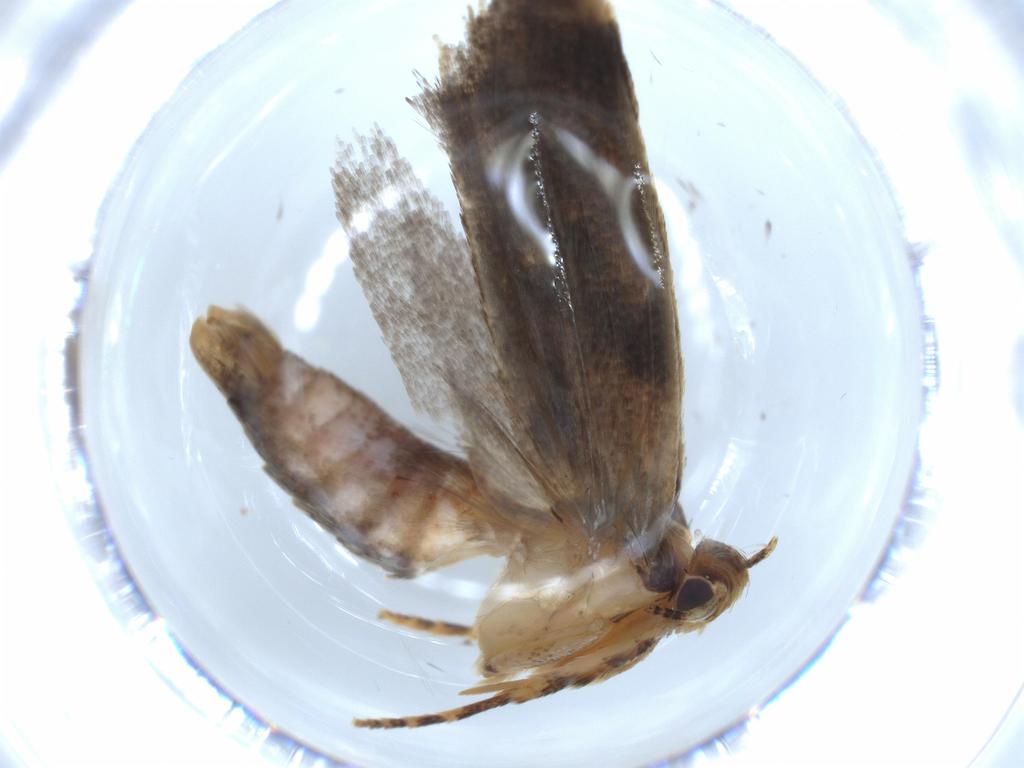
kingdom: Animalia
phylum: Arthropoda
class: Insecta
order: Lepidoptera
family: Gelechiidae
